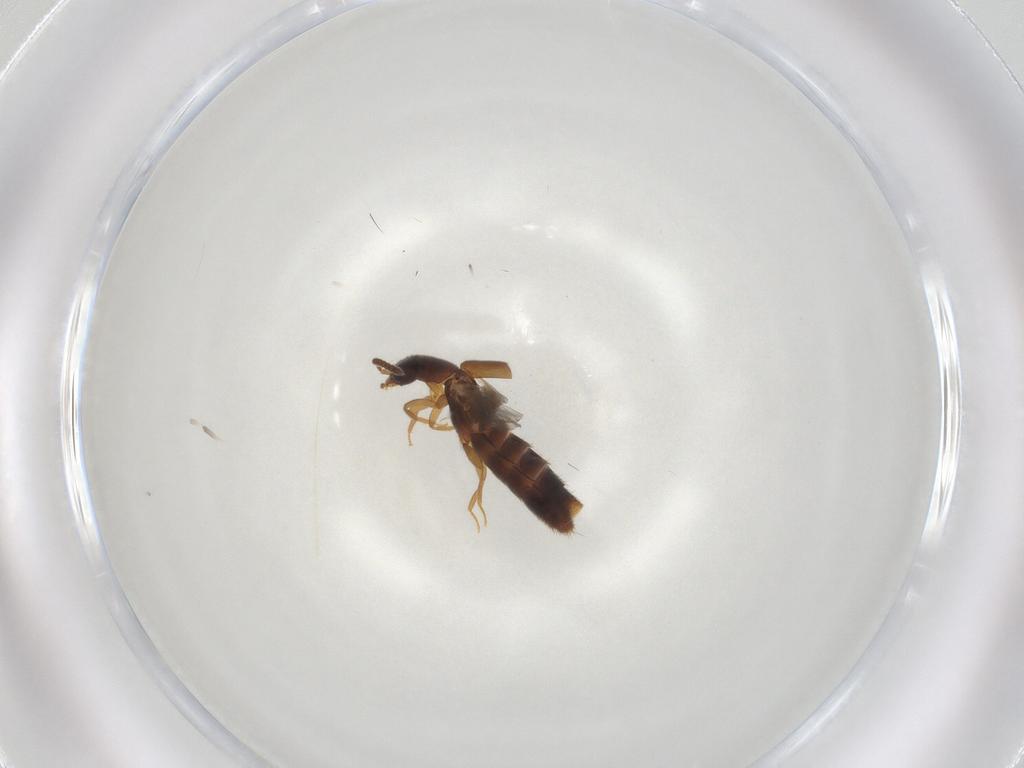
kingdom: Animalia
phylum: Arthropoda
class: Insecta
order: Coleoptera
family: Staphylinidae
